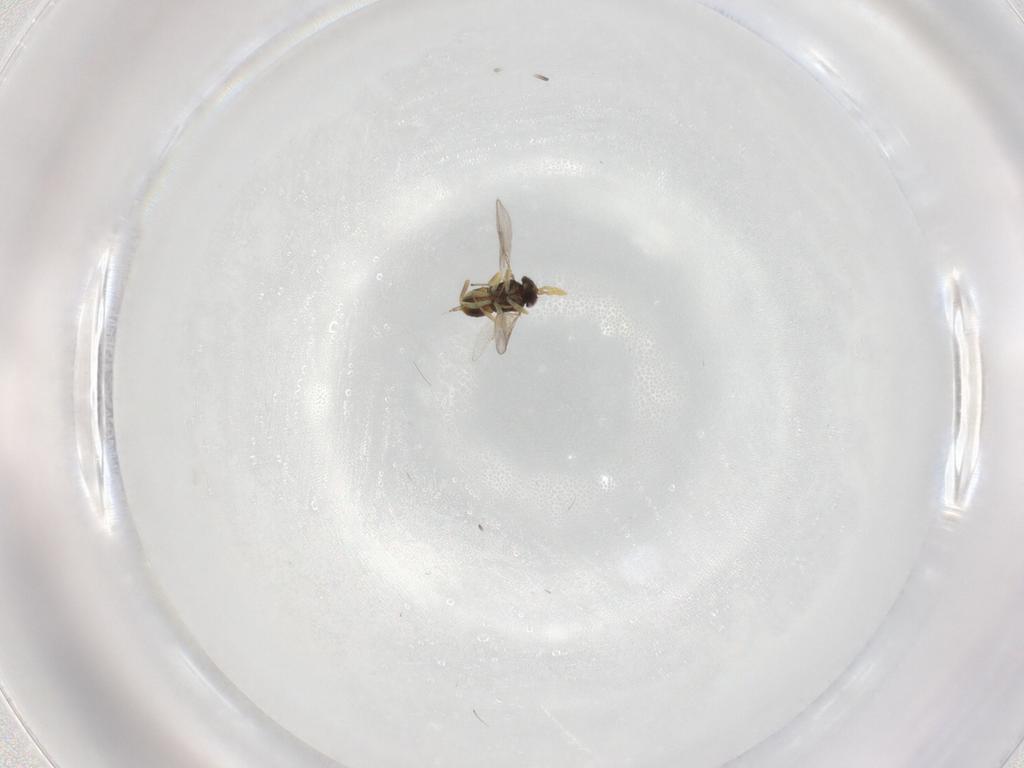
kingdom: Animalia
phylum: Arthropoda
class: Insecta
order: Hymenoptera
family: Aphelinidae
